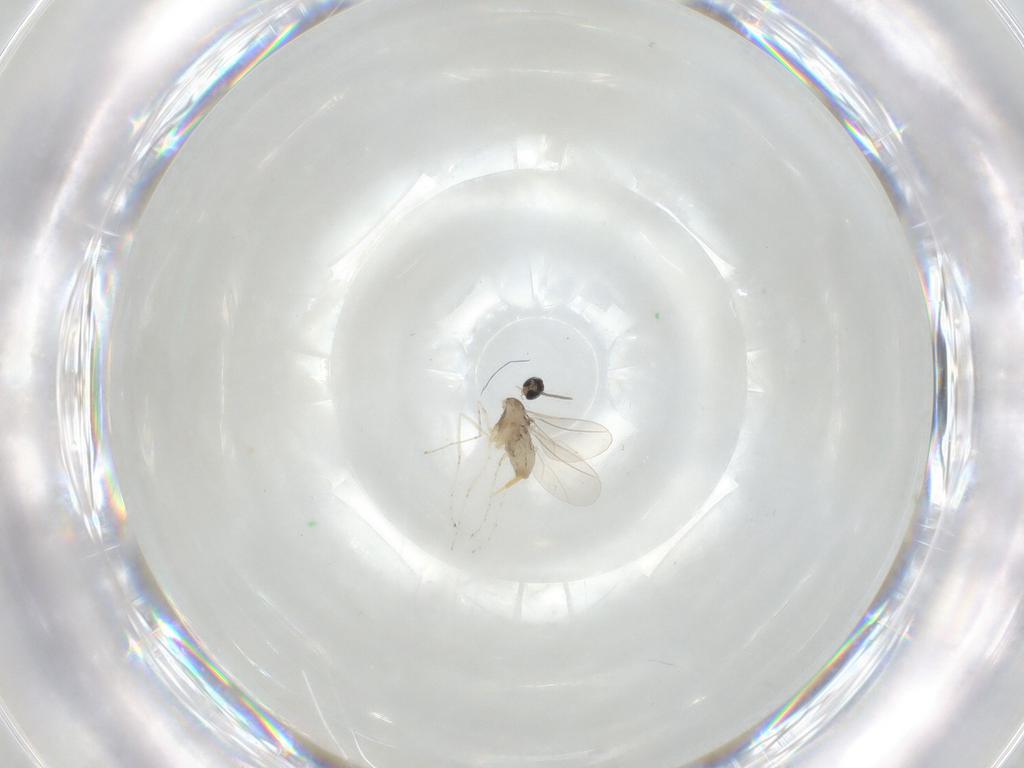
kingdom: Animalia
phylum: Arthropoda
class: Insecta
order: Diptera
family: Cecidomyiidae
